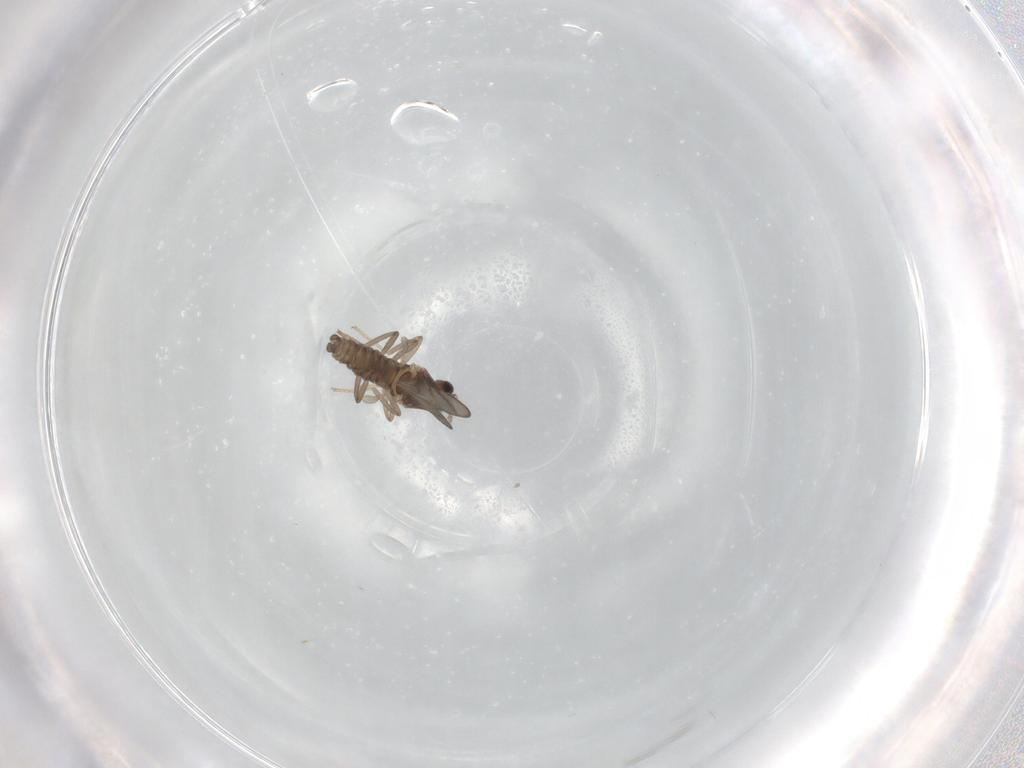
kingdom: Animalia
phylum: Arthropoda
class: Insecta
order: Diptera
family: Cecidomyiidae
